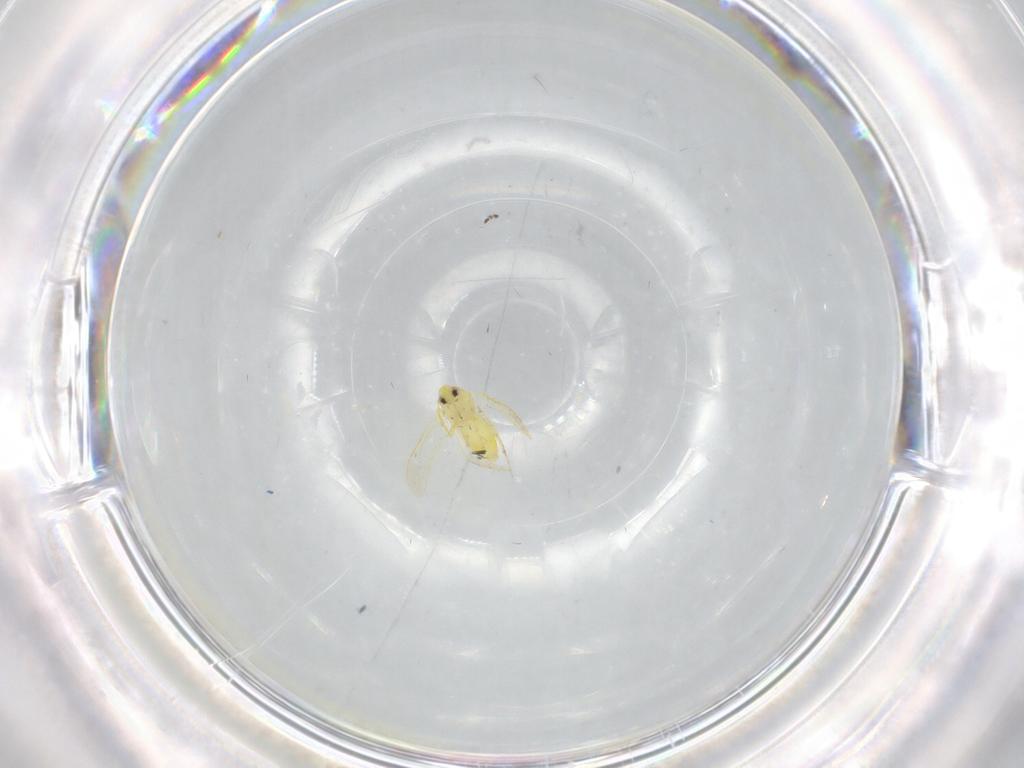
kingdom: Animalia
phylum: Arthropoda
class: Insecta
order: Hemiptera
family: Aleyrodidae
